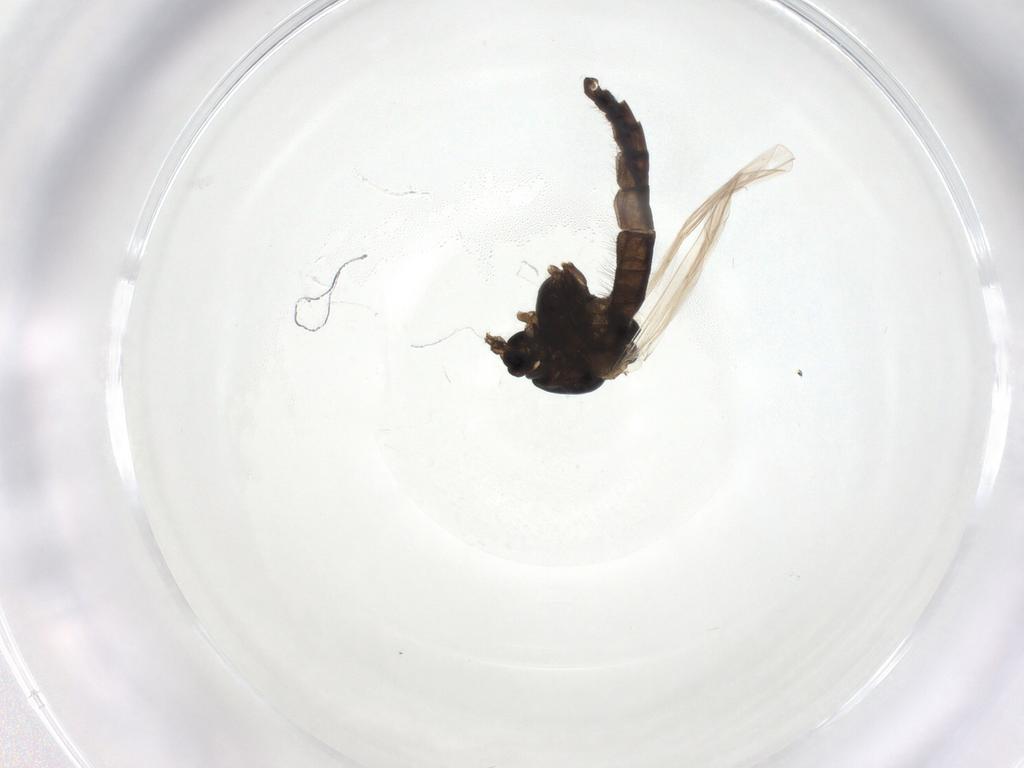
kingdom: Animalia
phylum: Arthropoda
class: Insecta
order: Diptera
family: Chironomidae
